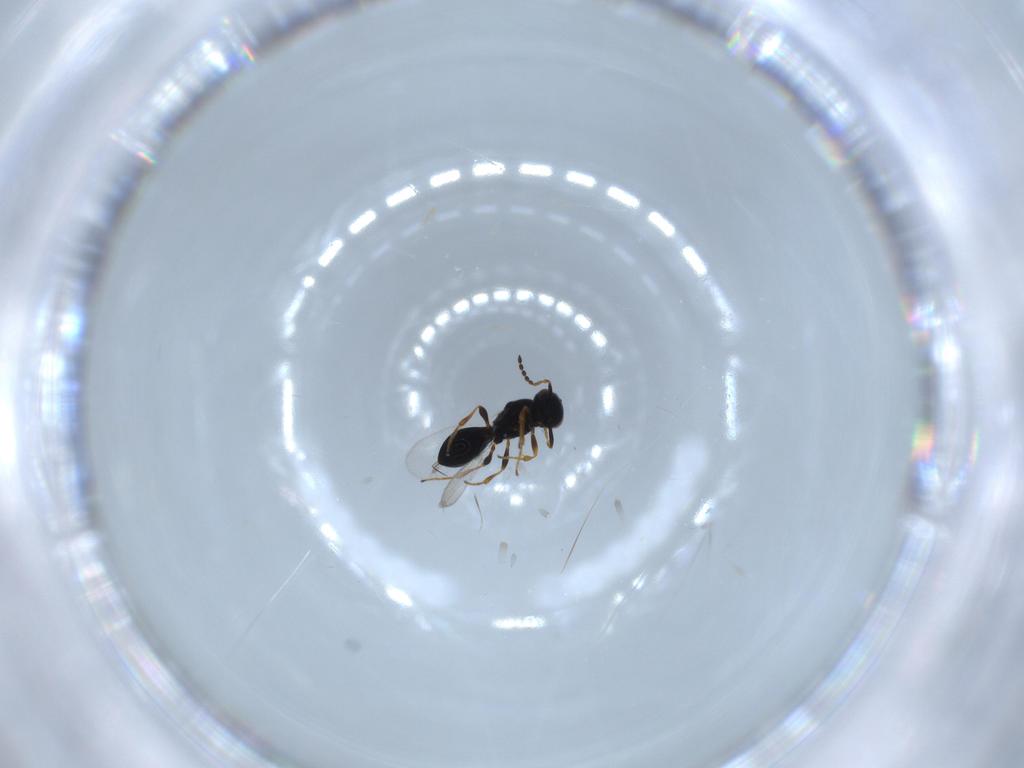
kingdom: Animalia
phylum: Arthropoda
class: Insecta
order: Hymenoptera
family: Platygastridae
